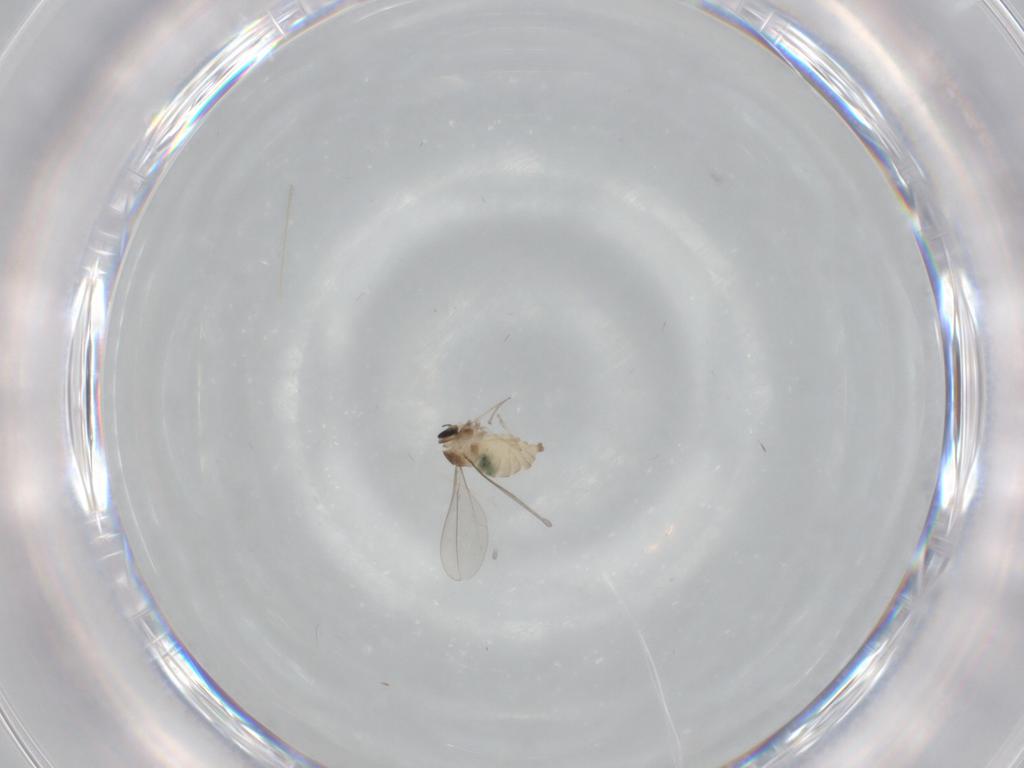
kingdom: Animalia
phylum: Arthropoda
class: Insecta
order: Diptera
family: Cecidomyiidae
